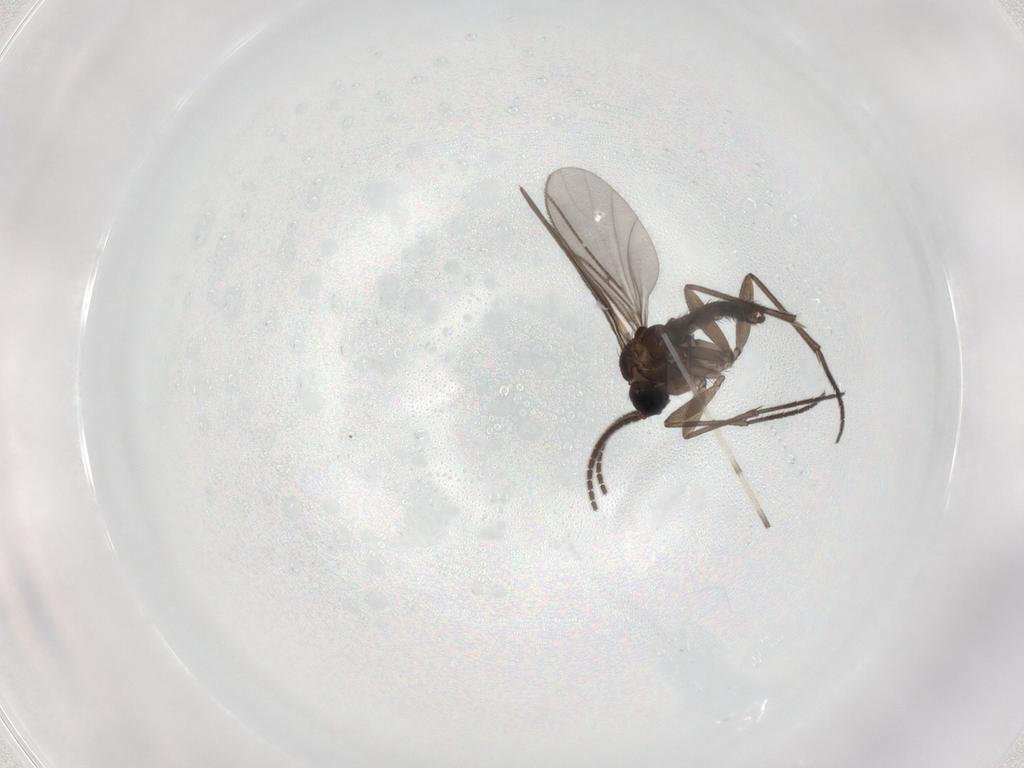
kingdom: Animalia
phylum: Arthropoda
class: Insecta
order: Diptera
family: Sciaridae
